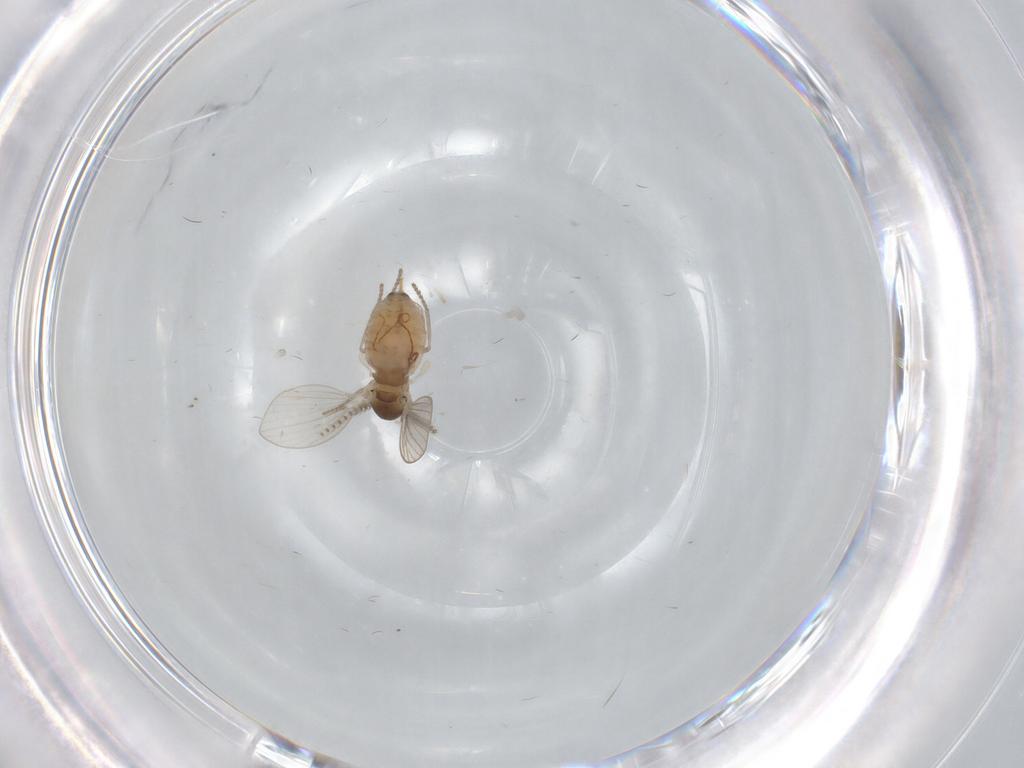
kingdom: Animalia
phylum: Arthropoda
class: Insecta
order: Diptera
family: Psychodidae
